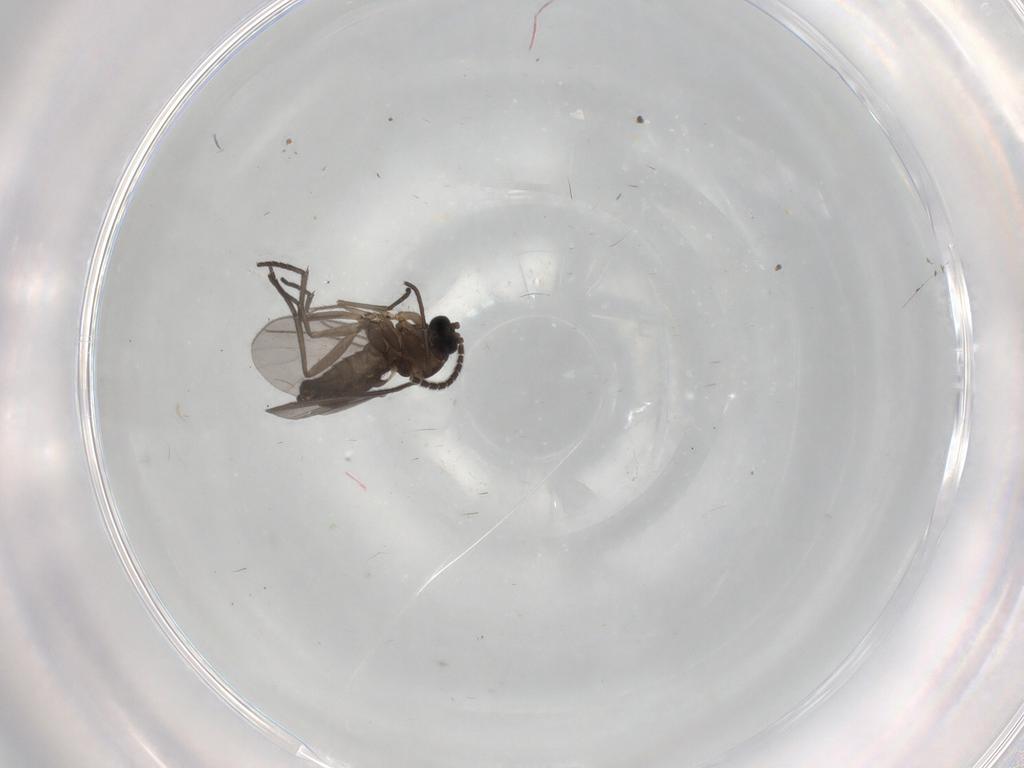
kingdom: Animalia
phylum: Arthropoda
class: Insecta
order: Diptera
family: Sciaridae
